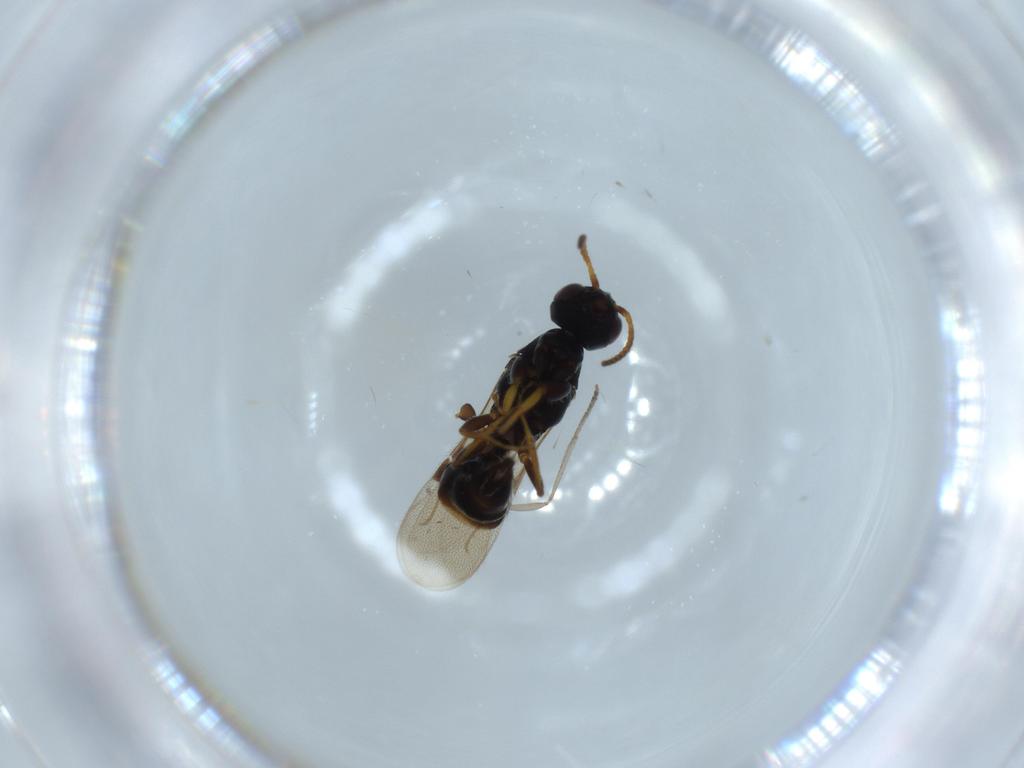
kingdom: Animalia
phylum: Arthropoda
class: Insecta
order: Hymenoptera
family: Bethylidae
